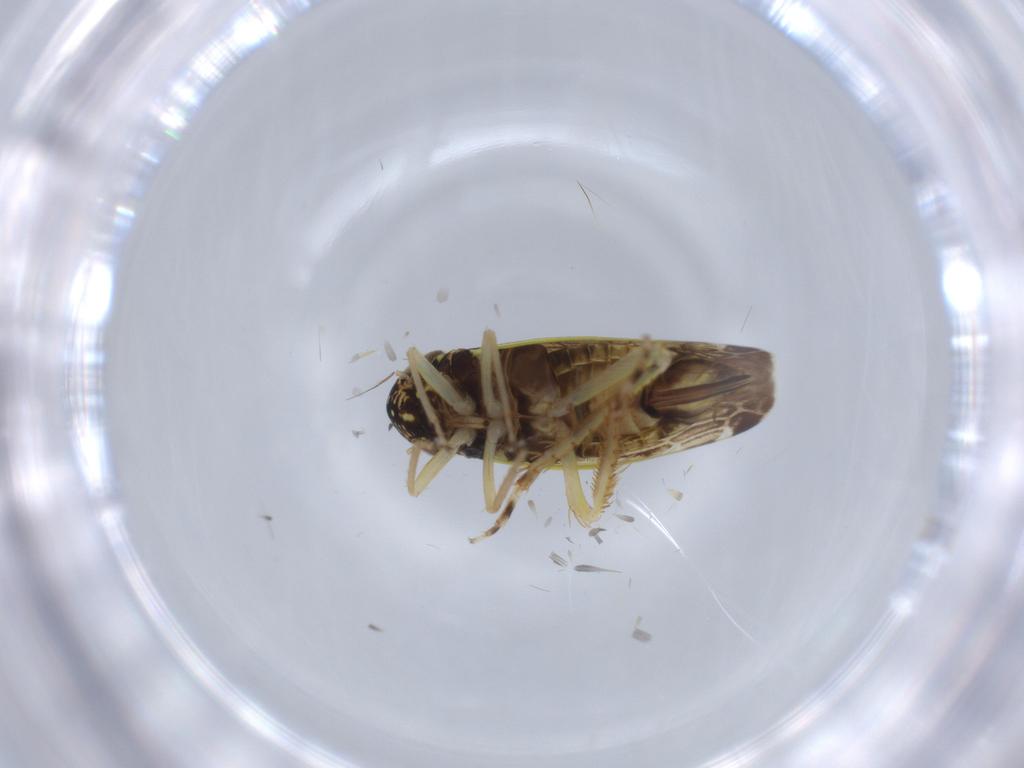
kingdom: Animalia
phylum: Arthropoda
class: Insecta
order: Hemiptera
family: Cicadellidae
